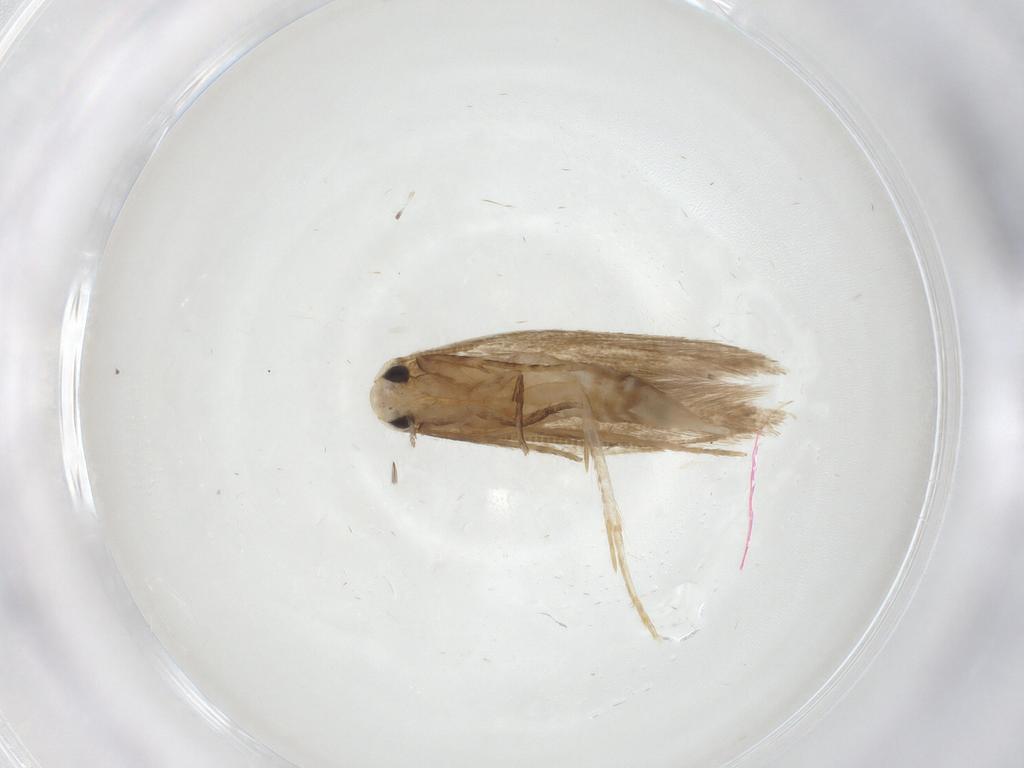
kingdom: Animalia
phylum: Arthropoda
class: Insecta
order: Lepidoptera
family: Tineidae
